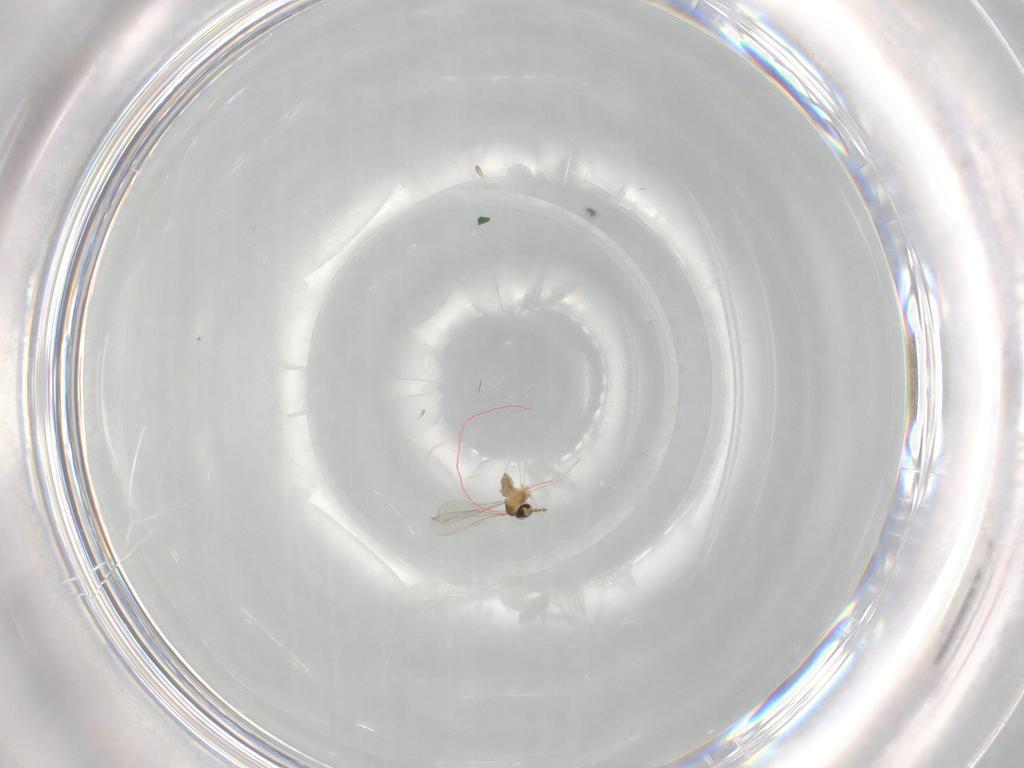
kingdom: Animalia
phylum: Arthropoda
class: Insecta
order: Diptera
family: Cecidomyiidae
